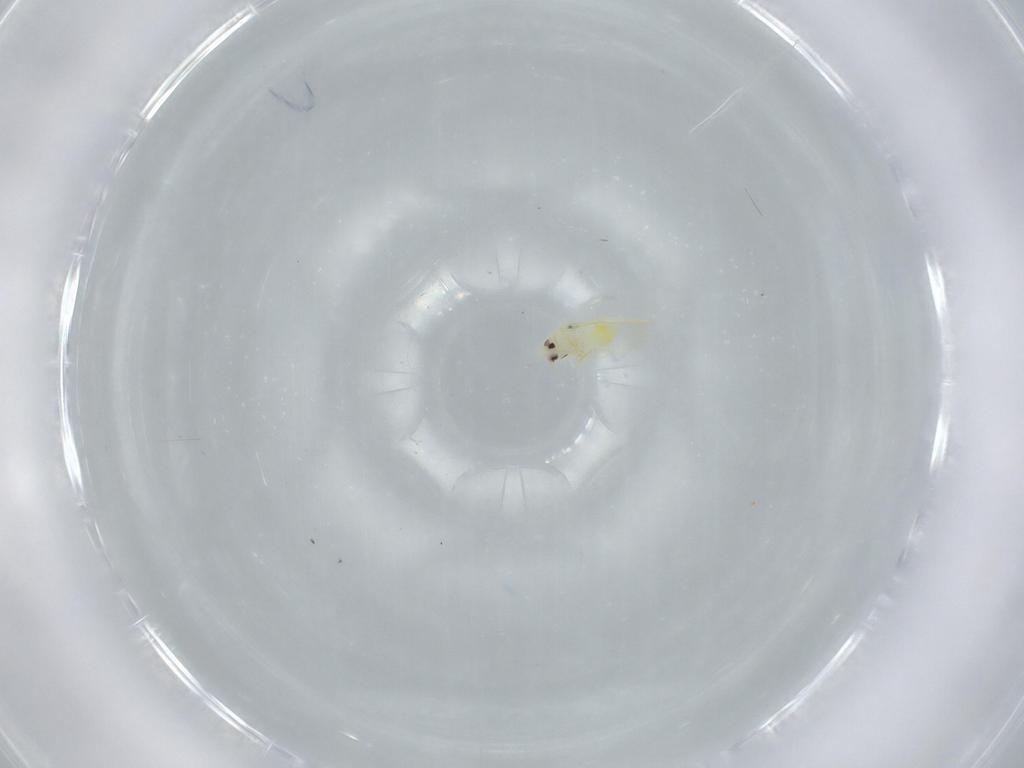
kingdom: Animalia
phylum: Arthropoda
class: Insecta
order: Hemiptera
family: Aleyrodidae
